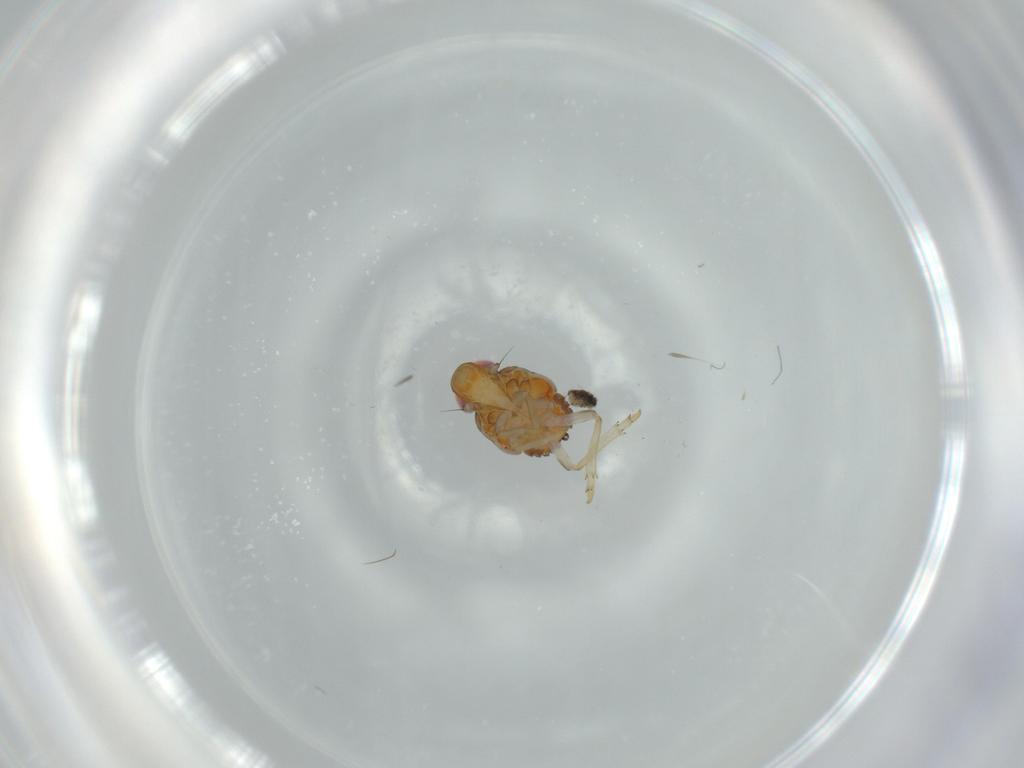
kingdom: Animalia
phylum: Arthropoda
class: Insecta
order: Hemiptera
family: Issidae
